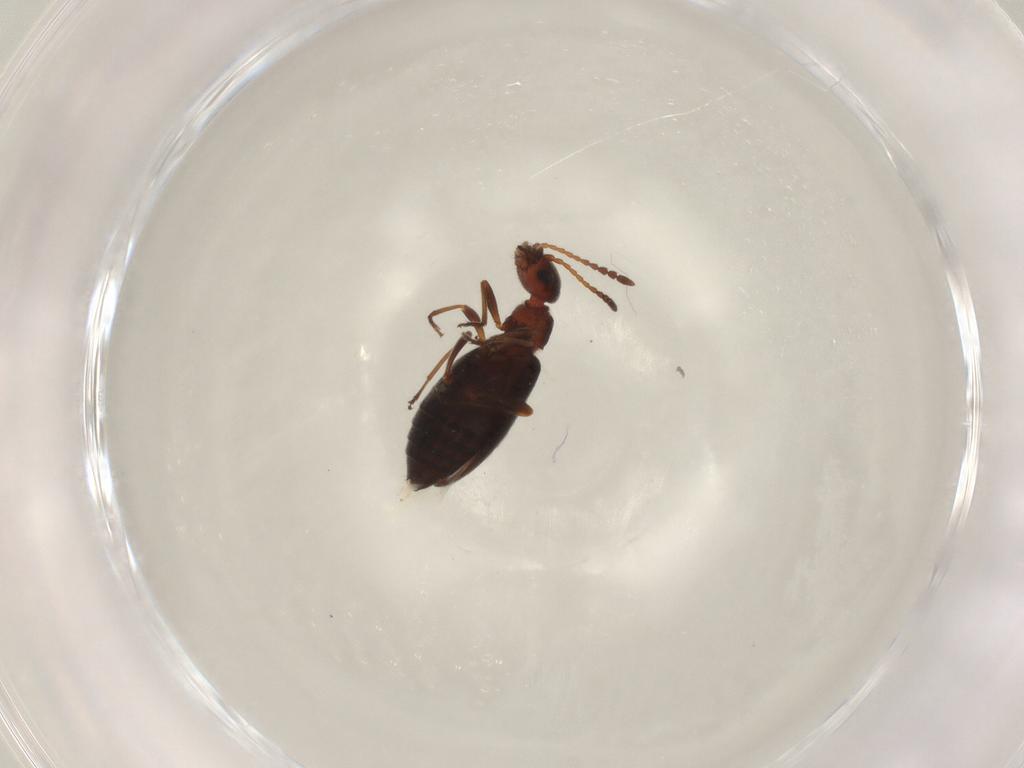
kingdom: Animalia
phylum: Arthropoda
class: Insecta
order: Coleoptera
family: Anthicidae
